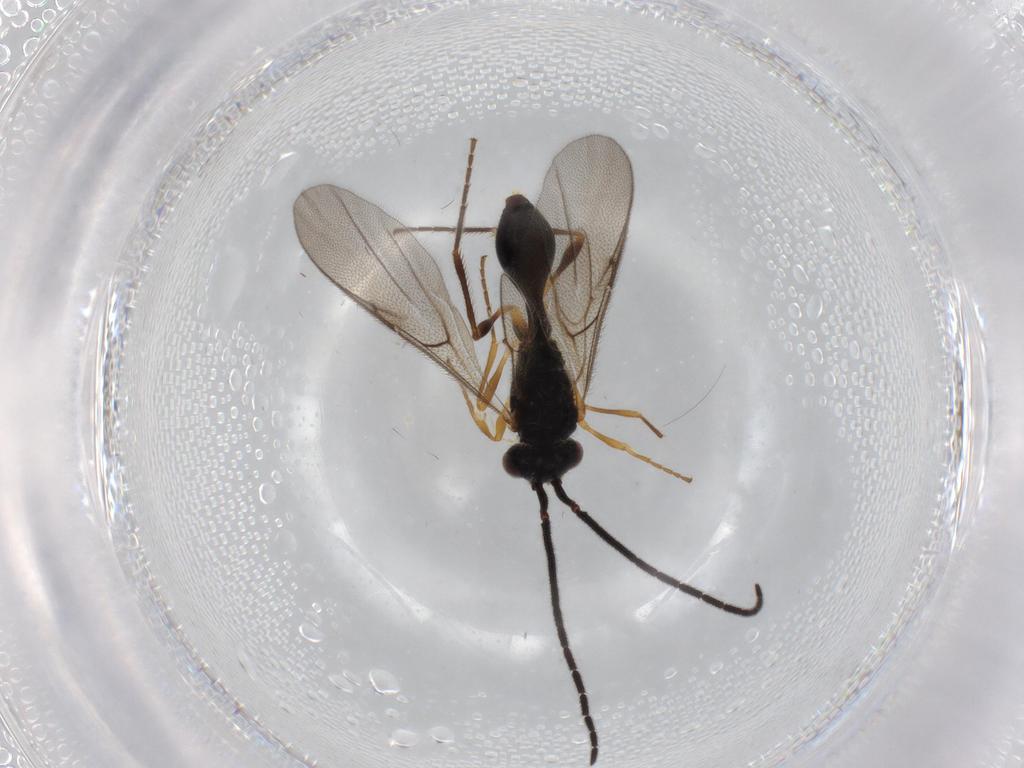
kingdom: Animalia
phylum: Arthropoda
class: Insecta
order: Hymenoptera
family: Formicidae
